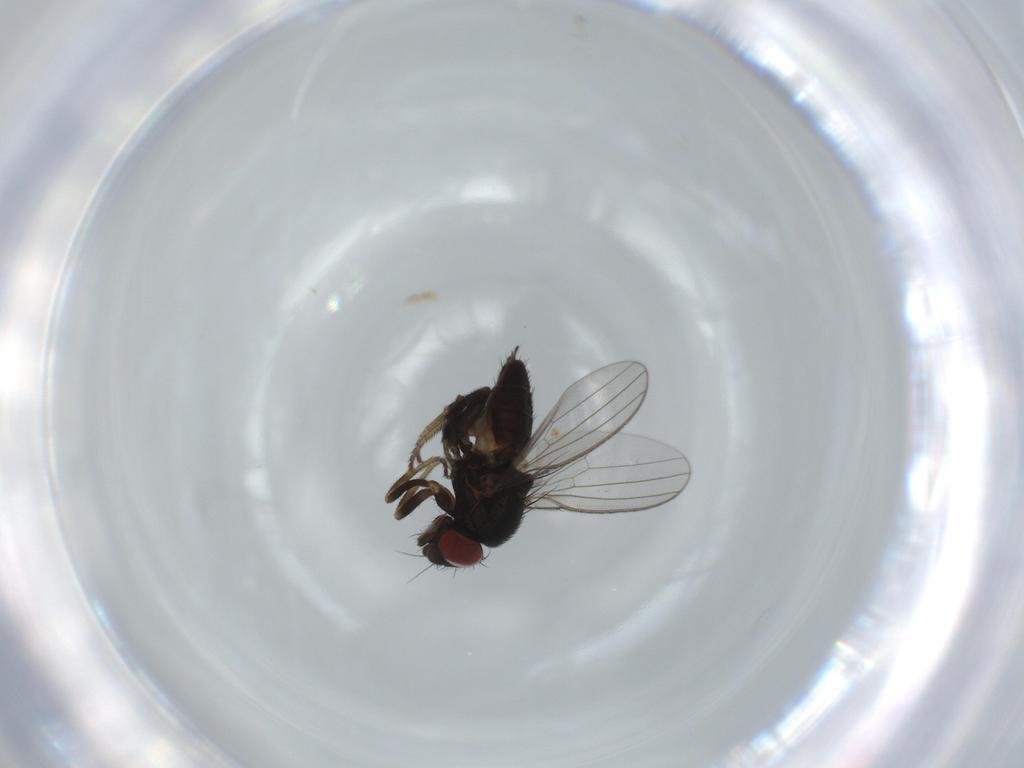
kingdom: Animalia
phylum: Arthropoda
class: Insecta
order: Diptera
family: Milichiidae
